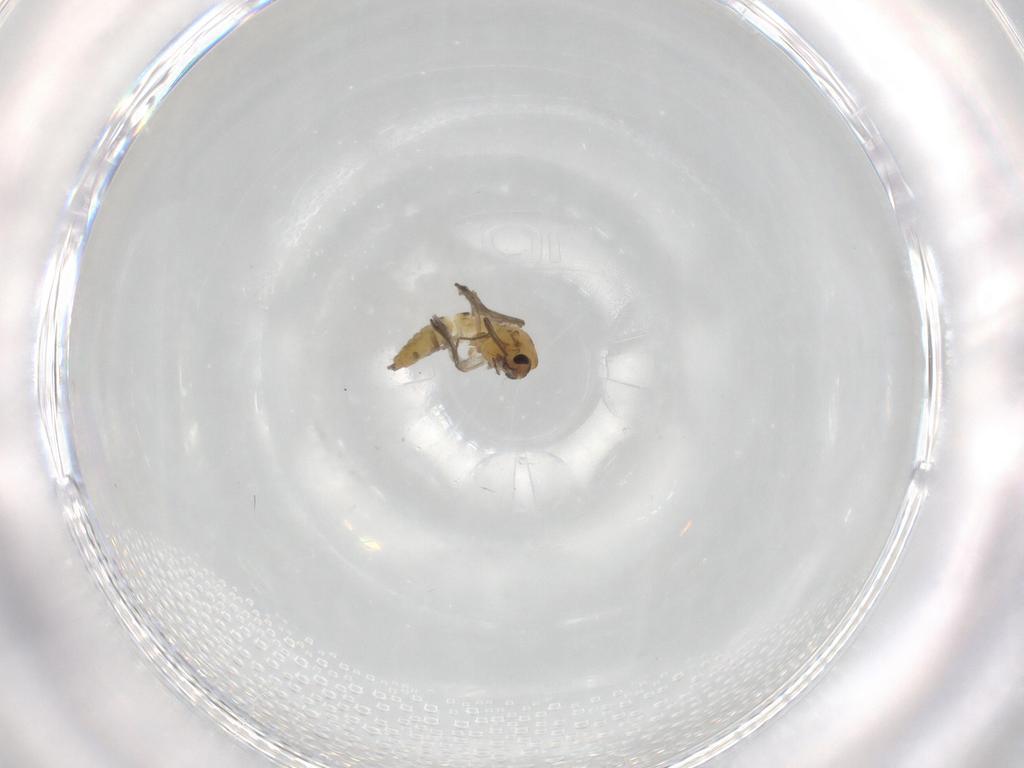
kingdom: Animalia
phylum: Arthropoda
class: Insecta
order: Diptera
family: Chironomidae
